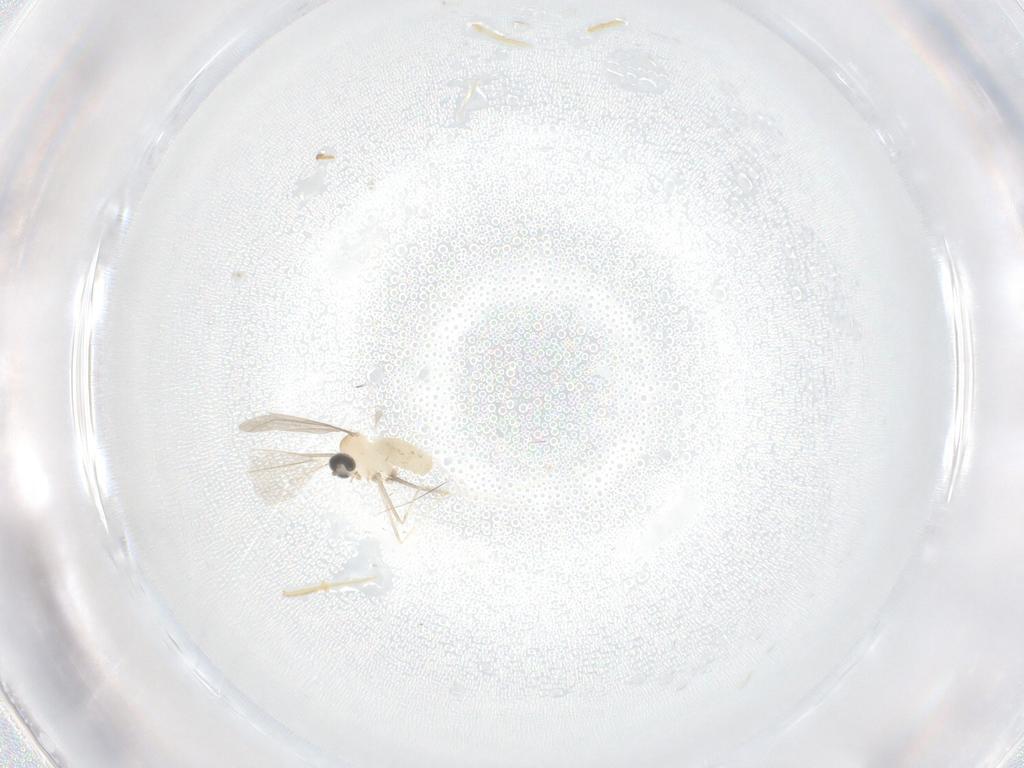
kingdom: Animalia
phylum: Arthropoda
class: Insecta
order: Diptera
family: Cecidomyiidae
